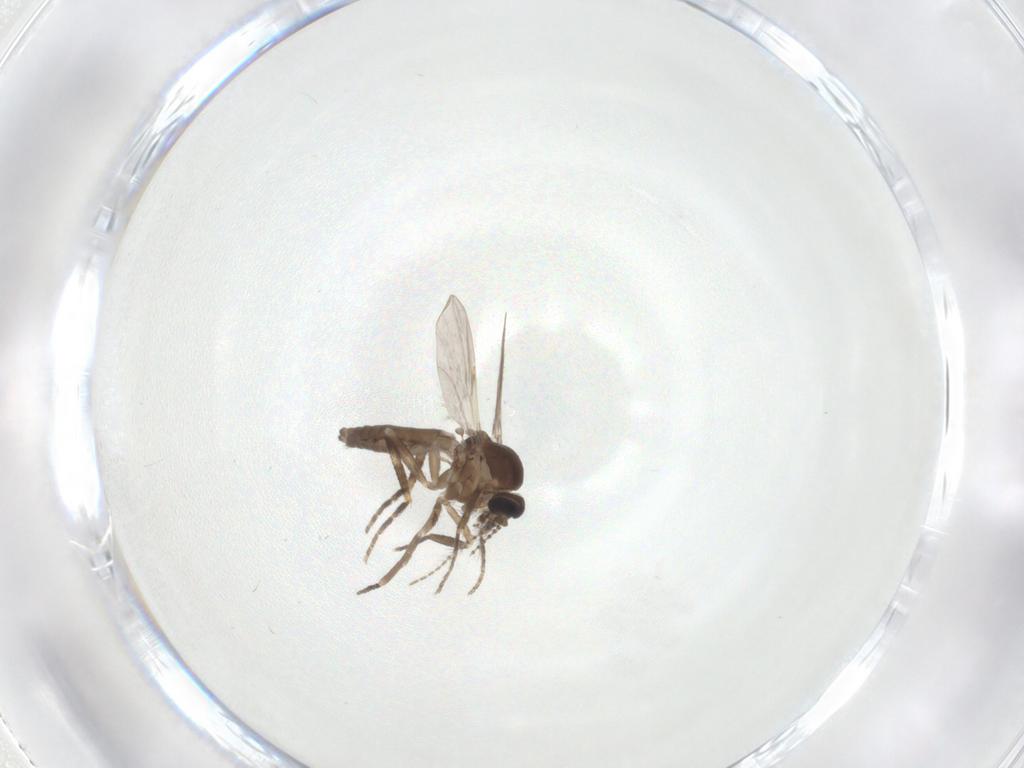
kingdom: Animalia
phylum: Arthropoda
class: Insecta
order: Diptera
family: Ceratopogonidae
